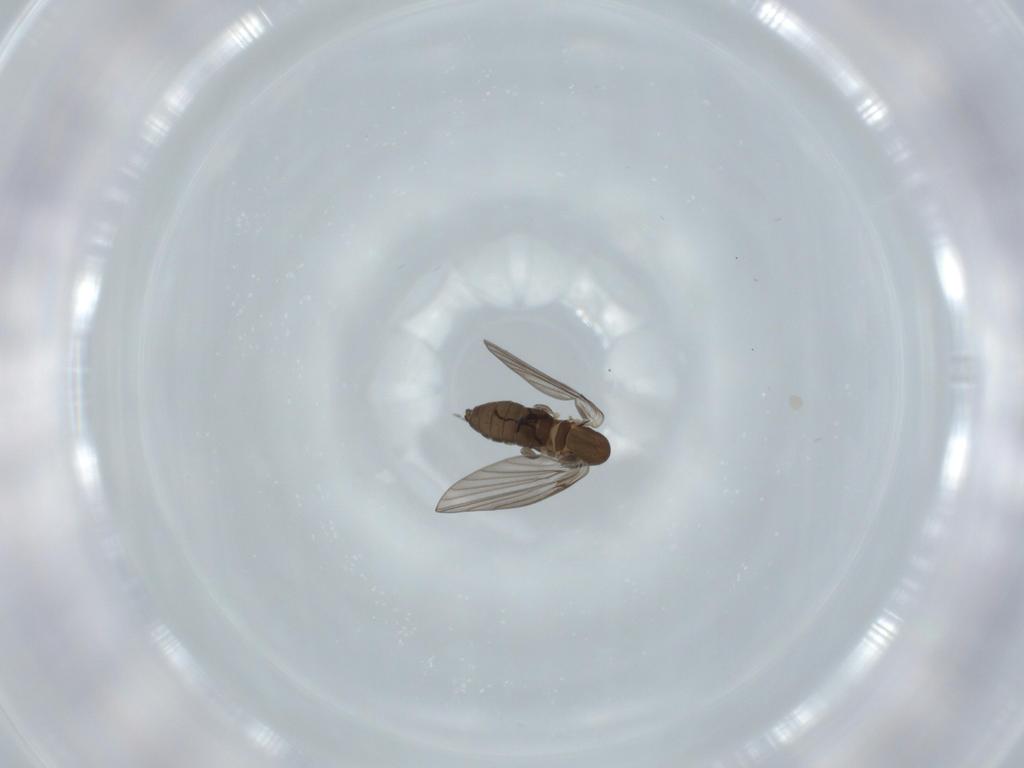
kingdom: Animalia
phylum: Arthropoda
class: Insecta
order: Diptera
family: Psychodidae
